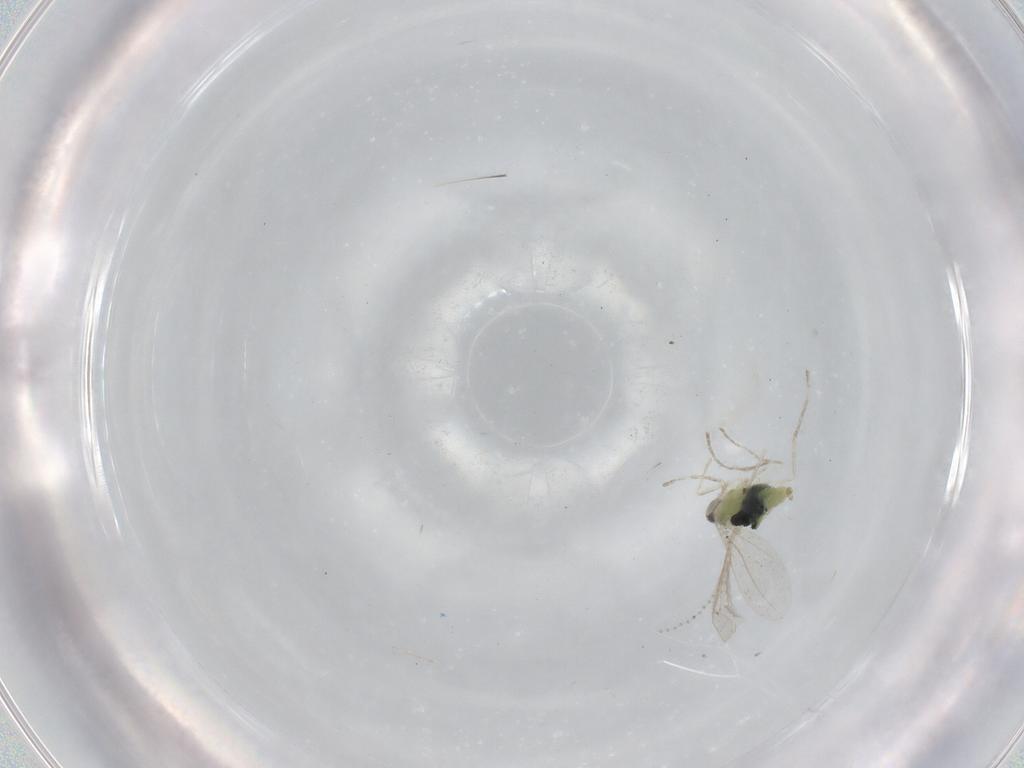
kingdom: Animalia
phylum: Arthropoda
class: Insecta
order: Diptera
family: Cecidomyiidae
